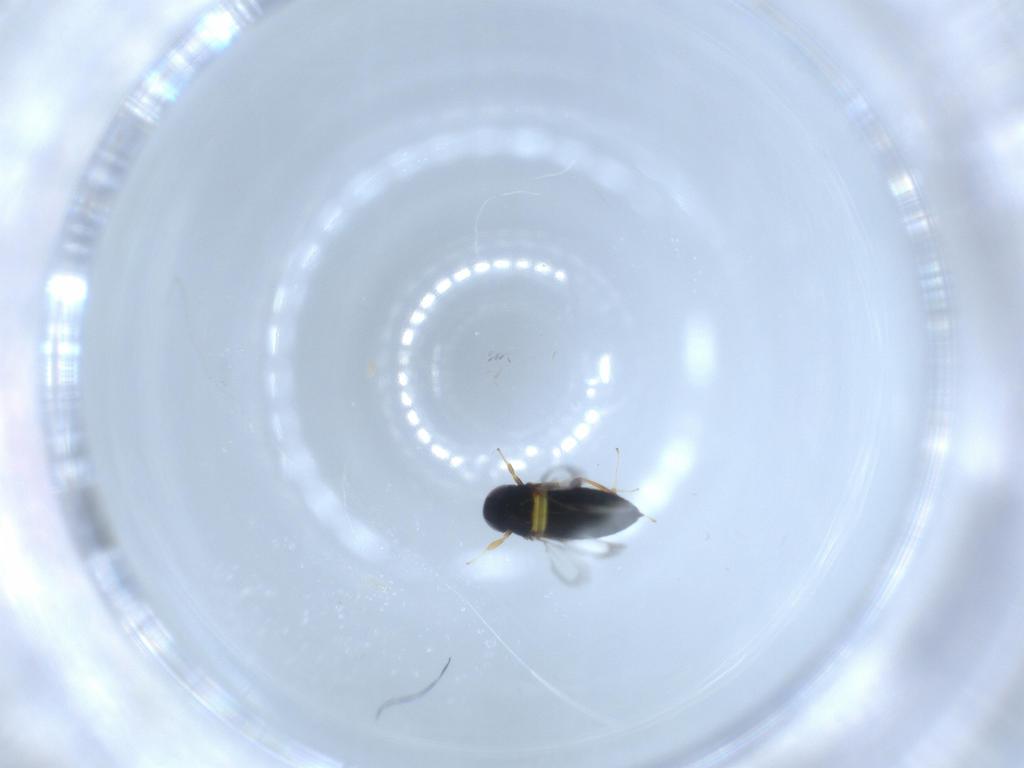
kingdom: Animalia
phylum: Arthropoda
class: Insecta
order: Hymenoptera
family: Signiphoridae
